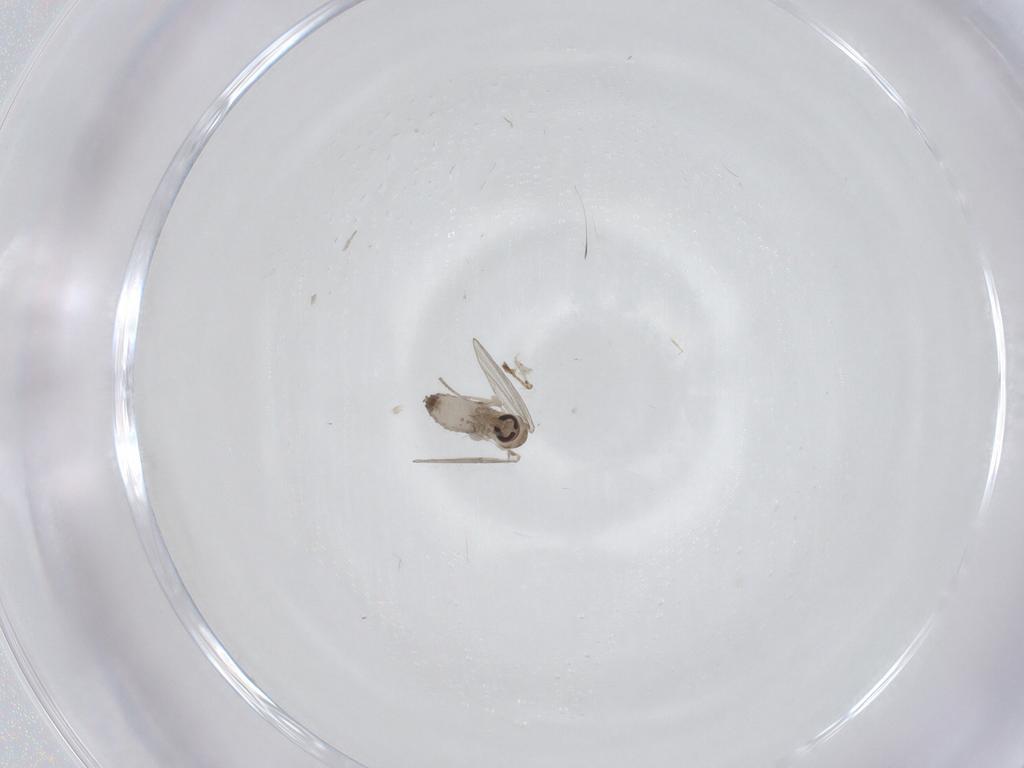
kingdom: Animalia
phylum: Arthropoda
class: Insecta
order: Diptera
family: Psychodidae
